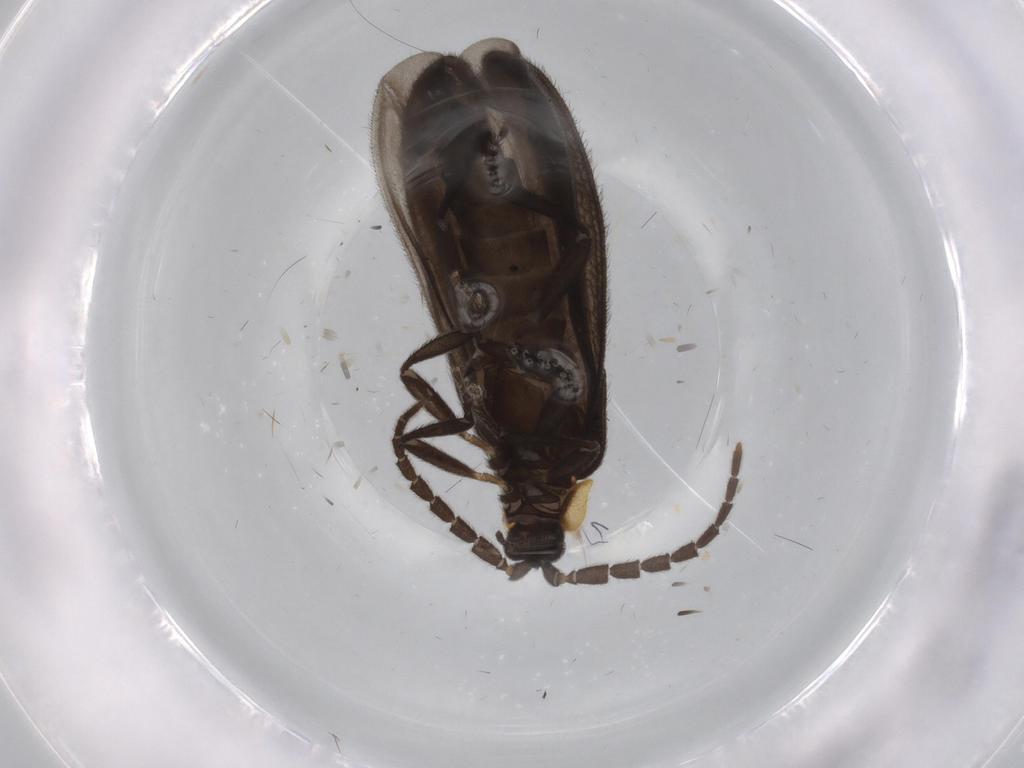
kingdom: Animalia
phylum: Arthropoda
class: Insecta
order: Coleoptera
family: Lycidae
